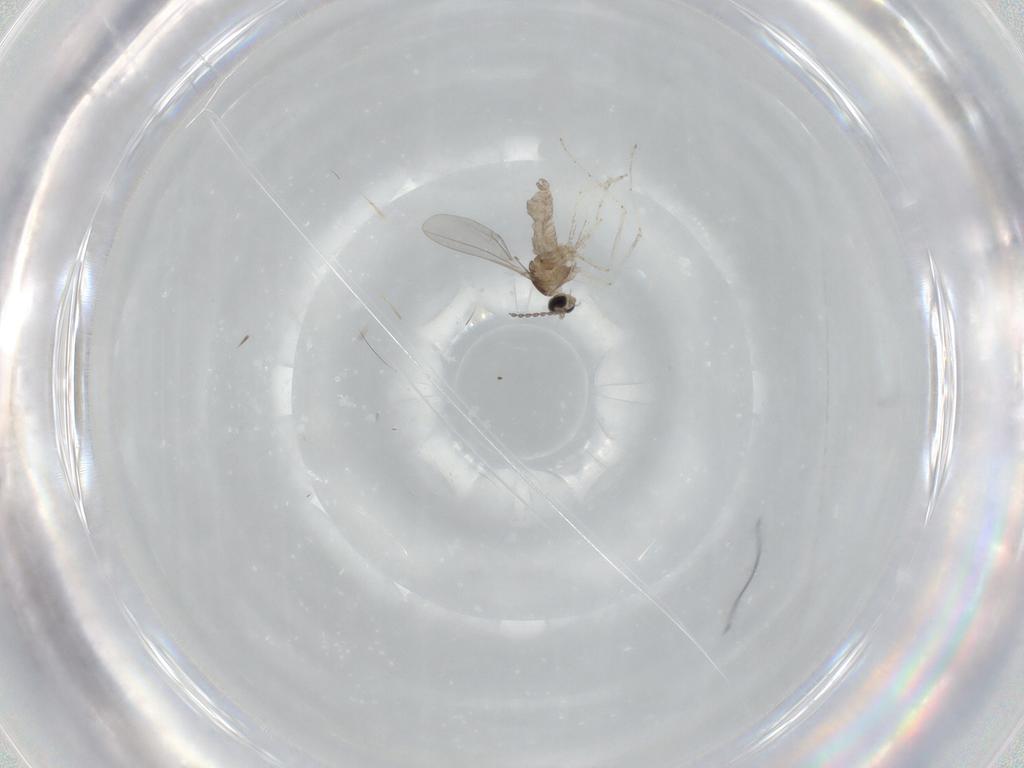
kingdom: Animalia
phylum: Arthropoda
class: Insecta
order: Diptera
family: Cecidomyiidae
